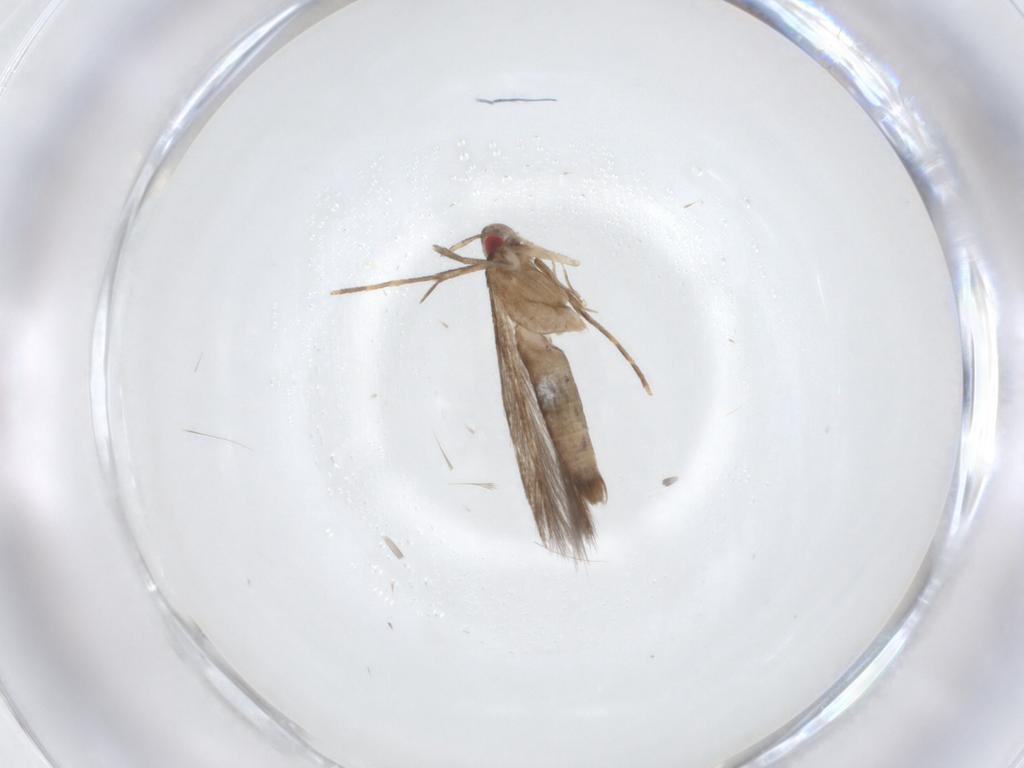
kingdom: Animalia
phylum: Arthropoda
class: Insecta
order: Lepidoptera
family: Cosmopterigidae
